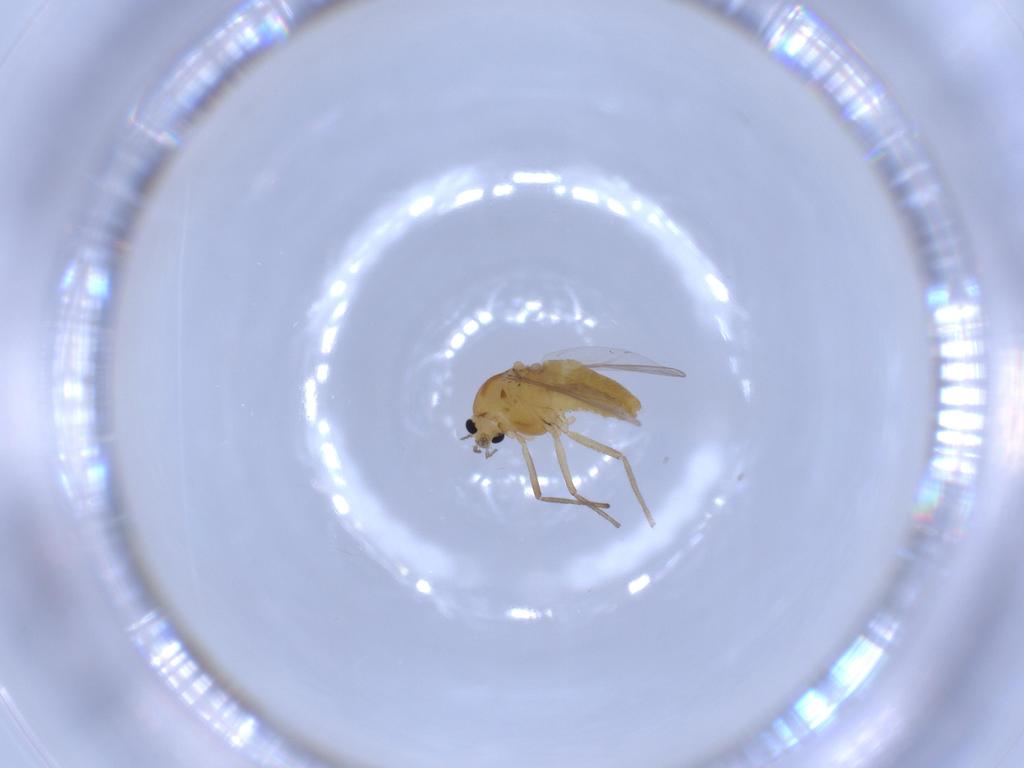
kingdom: Animalia
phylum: Arthropoda
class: Insecta
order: Diptera
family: Chironomidae
